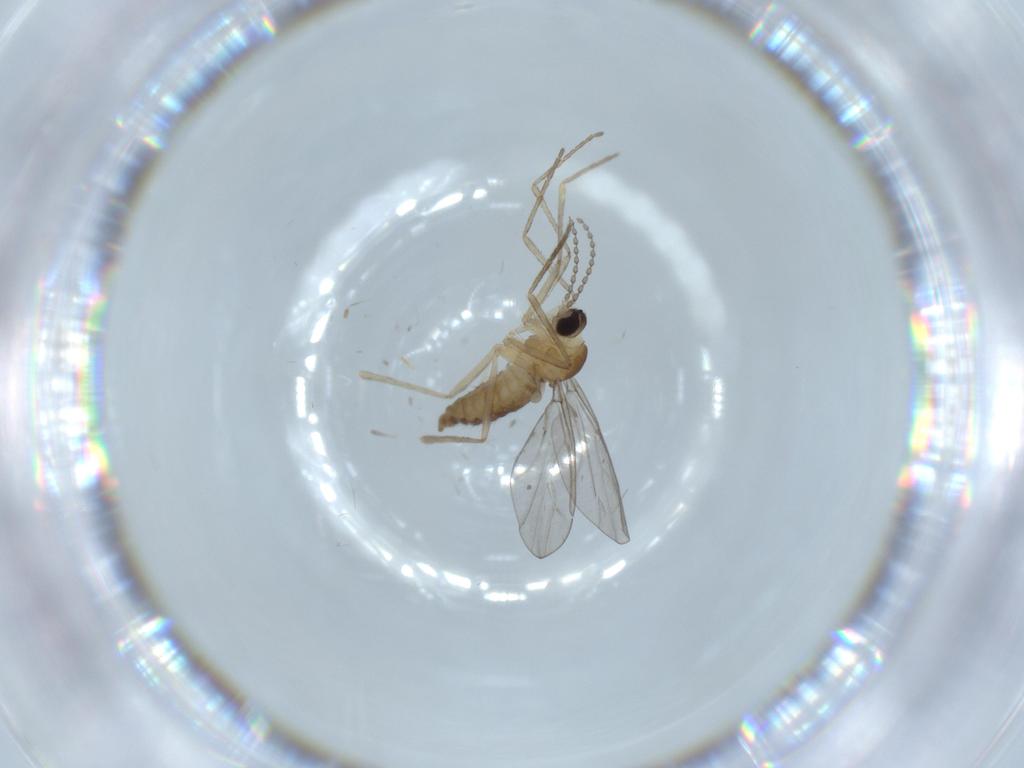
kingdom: Animalia
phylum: Arthropoda
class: Insecta
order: Diptera
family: Cecidomyiidae
